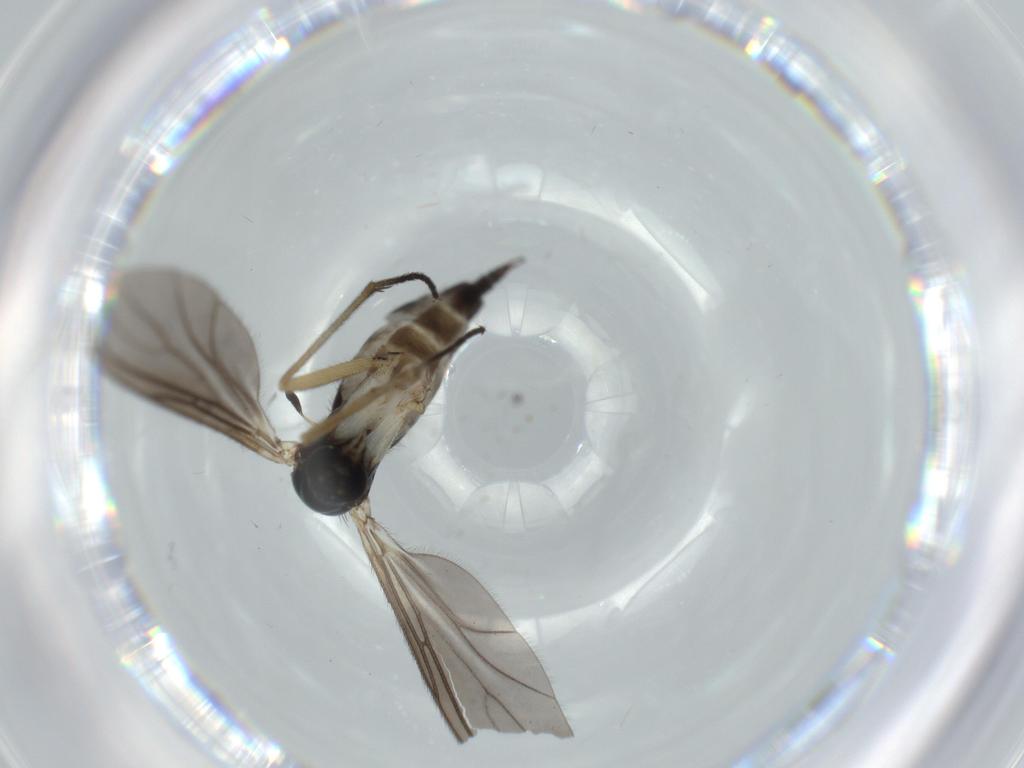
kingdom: Animalia
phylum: Arthropoda
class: Insecta
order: Diptera
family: Sciaridae
